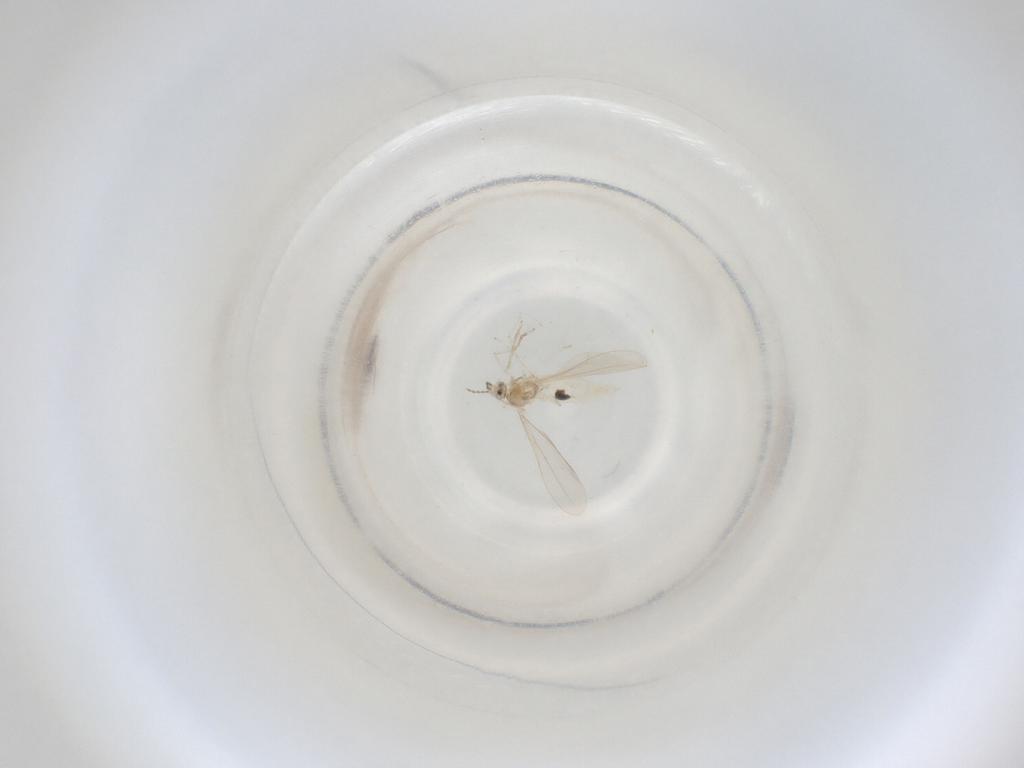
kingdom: Animalia
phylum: Arthropoda
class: Insecta
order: Diptera
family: Cecidomyiidae
